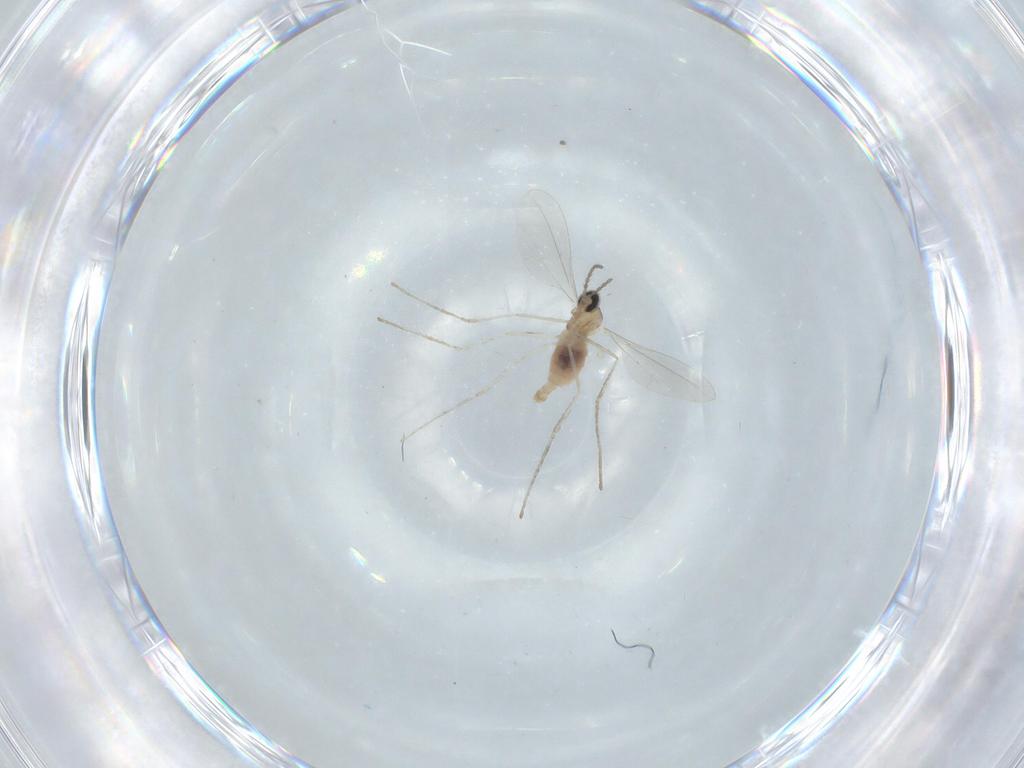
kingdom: Animalia
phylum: Arthropoda
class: Insecta
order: Diptera
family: Cecidomyiidae
